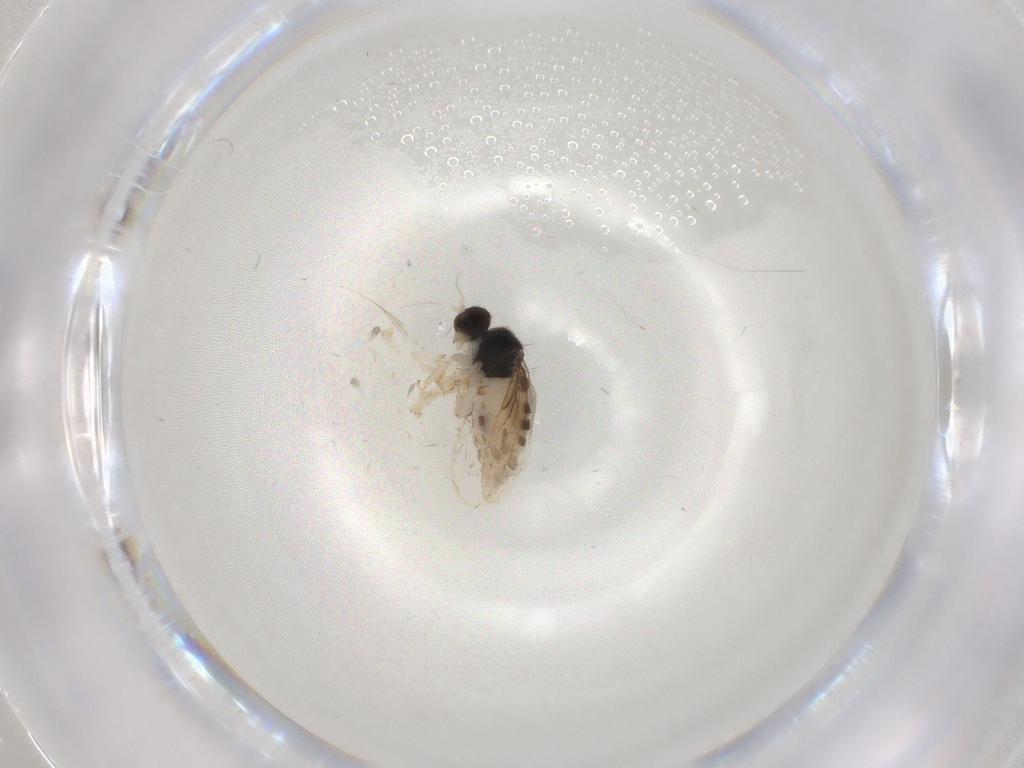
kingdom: Animalia
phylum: Arthropoda
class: Insecta
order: Diptera
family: Hybotidae
